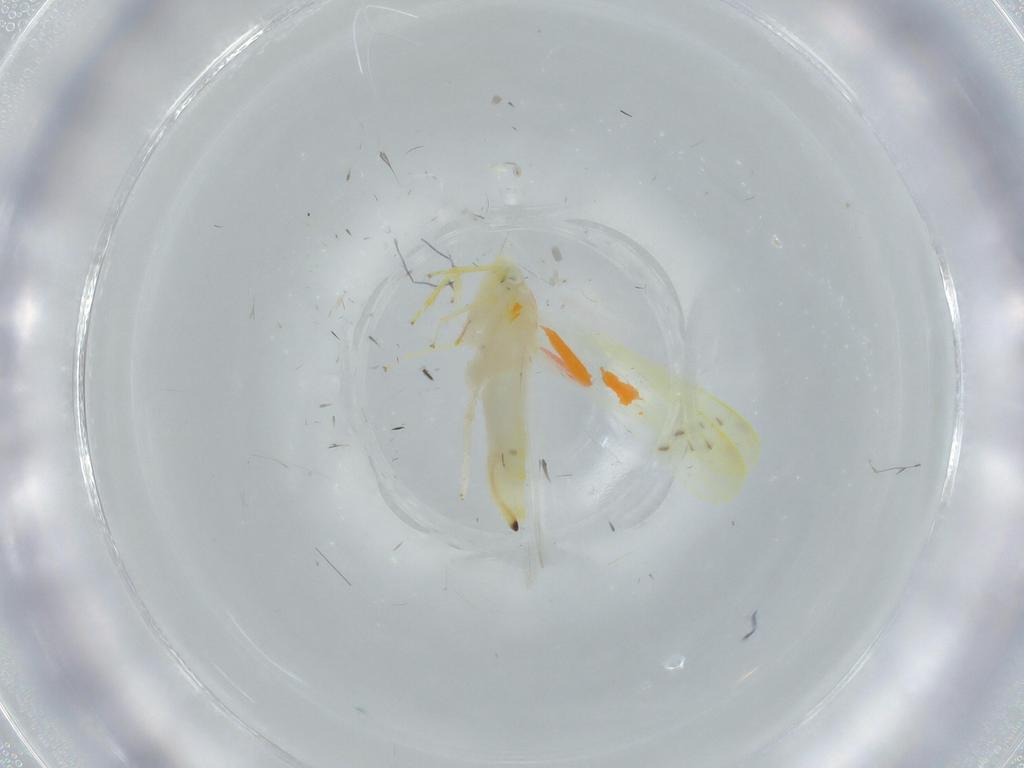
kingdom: Animalia
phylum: Arthropoda
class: Insecta
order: Hemiptera
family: Cicadellidae
